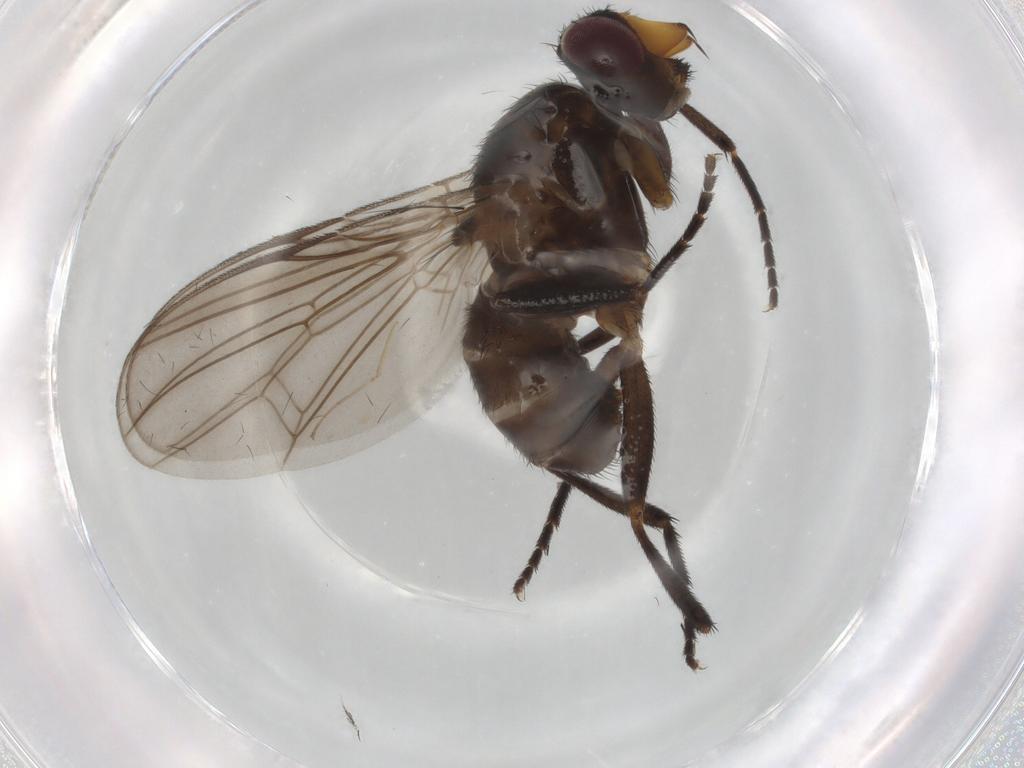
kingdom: Animalia
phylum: Arthropoda
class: Insecta
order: Diptera
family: Calliphoridae
